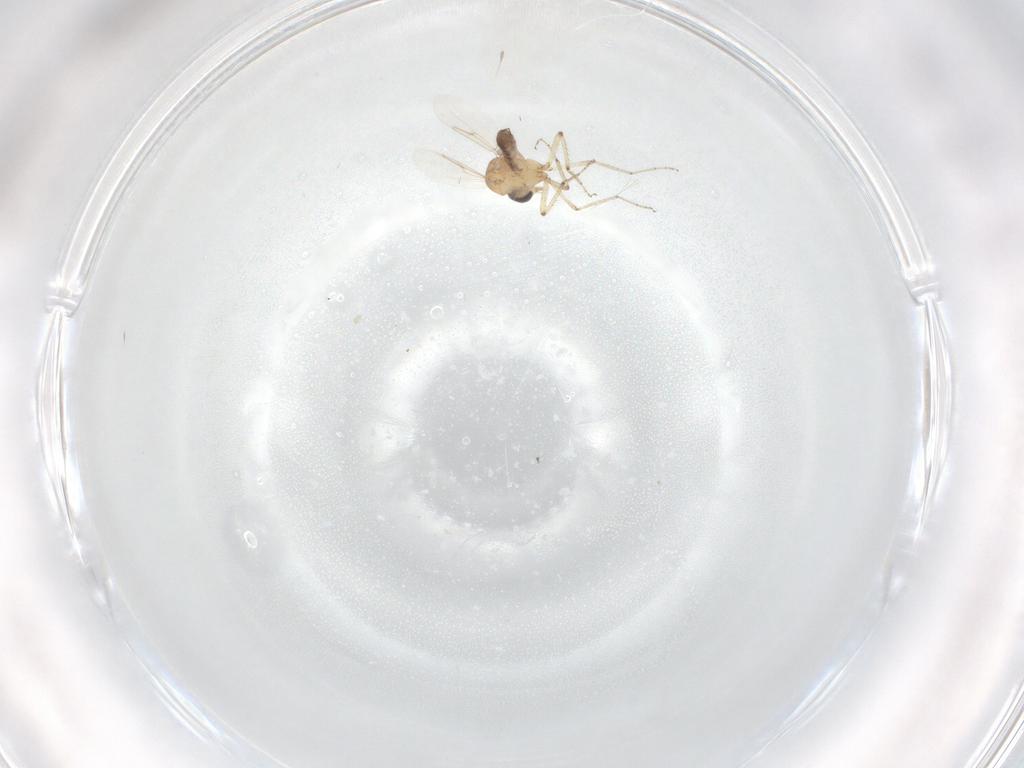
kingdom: Animalia
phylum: Arthropoda
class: Insecta
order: Diptera
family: Ceratopogonidae
